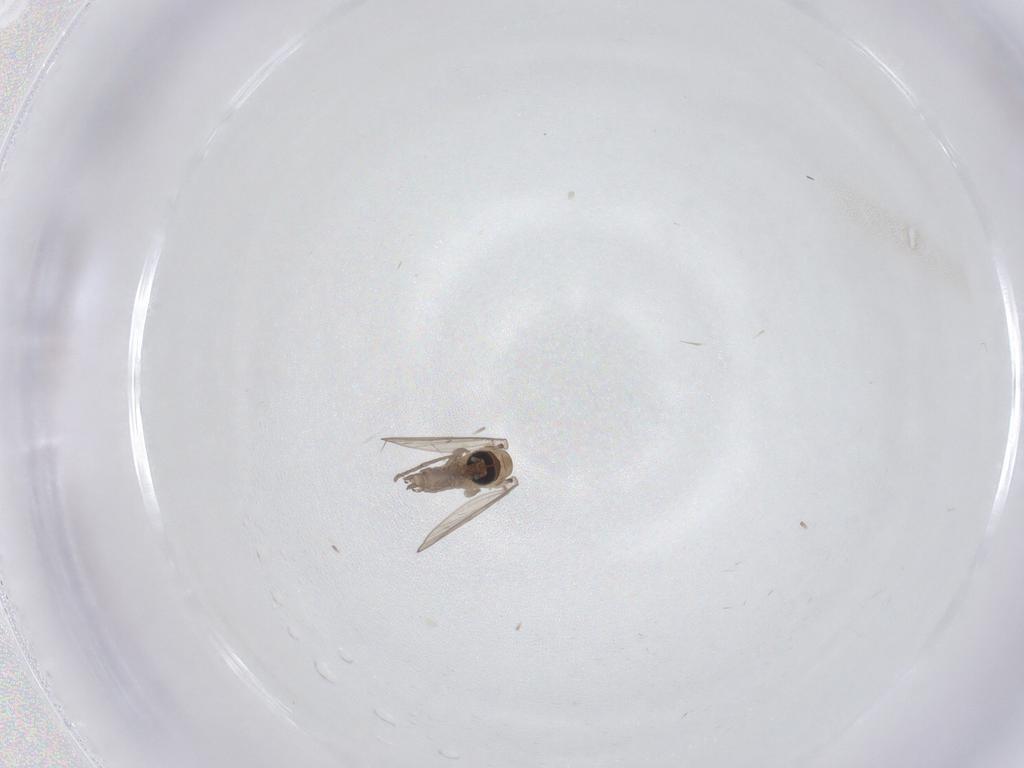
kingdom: Animalia
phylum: Arthropoda
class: Insecta
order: Diptera
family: Psychodidae
